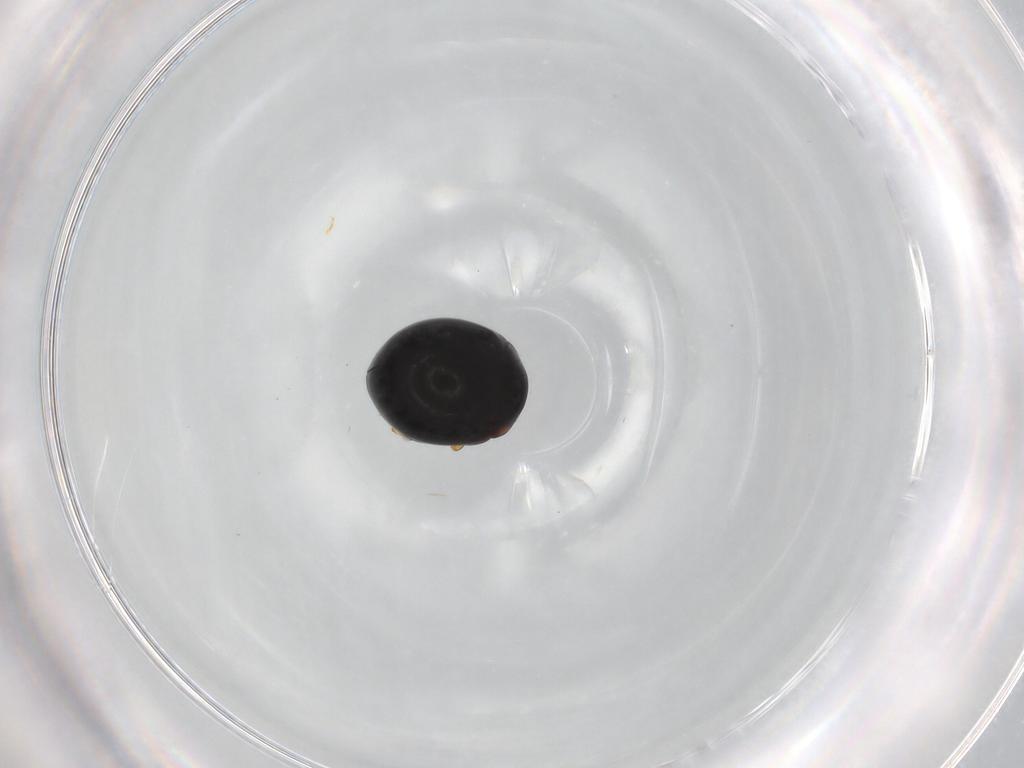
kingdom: Animalia
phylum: Arthropoda
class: Insecta
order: Coleoptera
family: Coccinellidae
